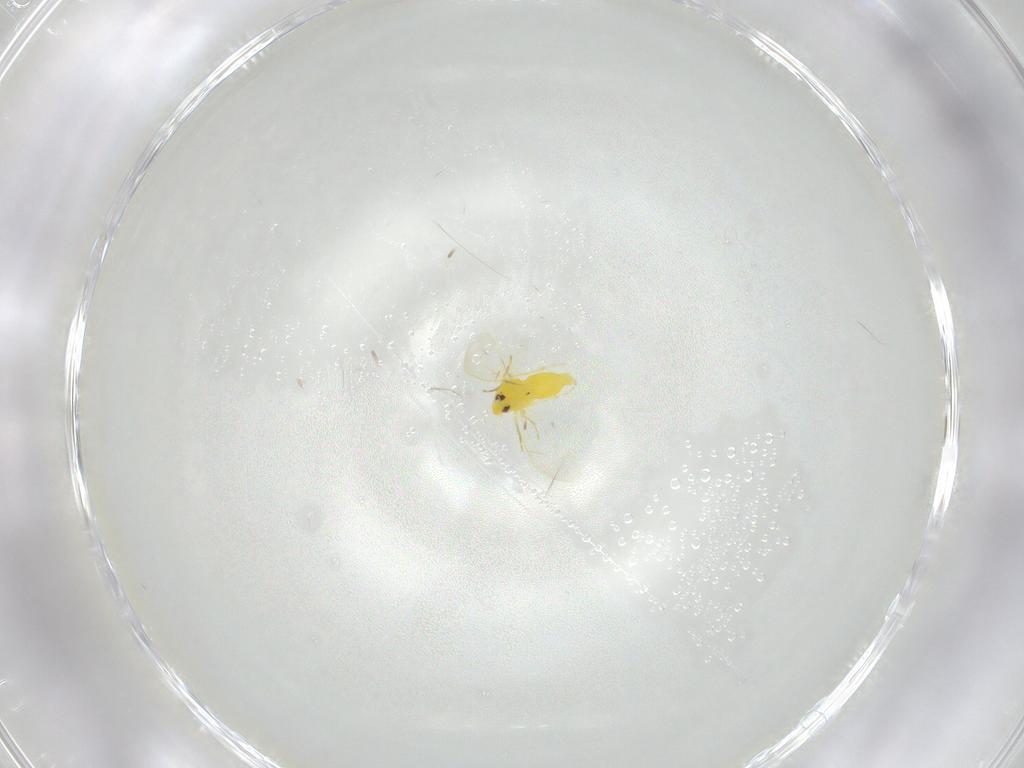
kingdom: Animalia
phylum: Arthropoda
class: Insecta
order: Hemiptera
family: Aleyrodidae
